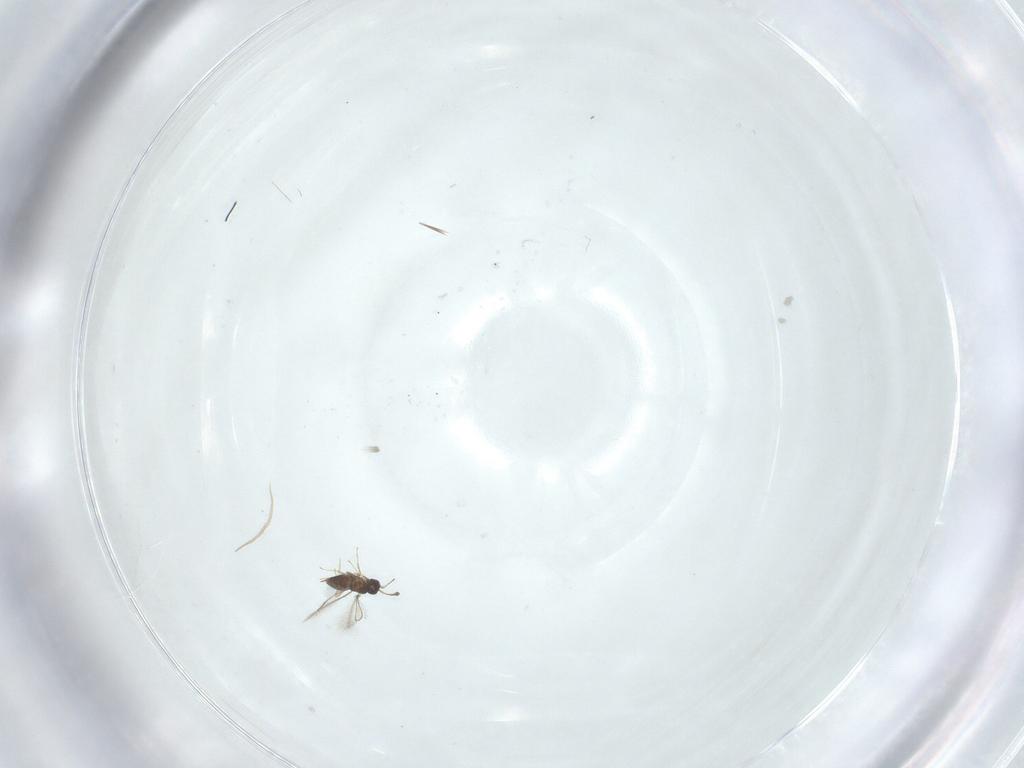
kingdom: Animalia
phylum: Arthropoda
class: Insecta
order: Lepidoptera
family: Noctuidae
